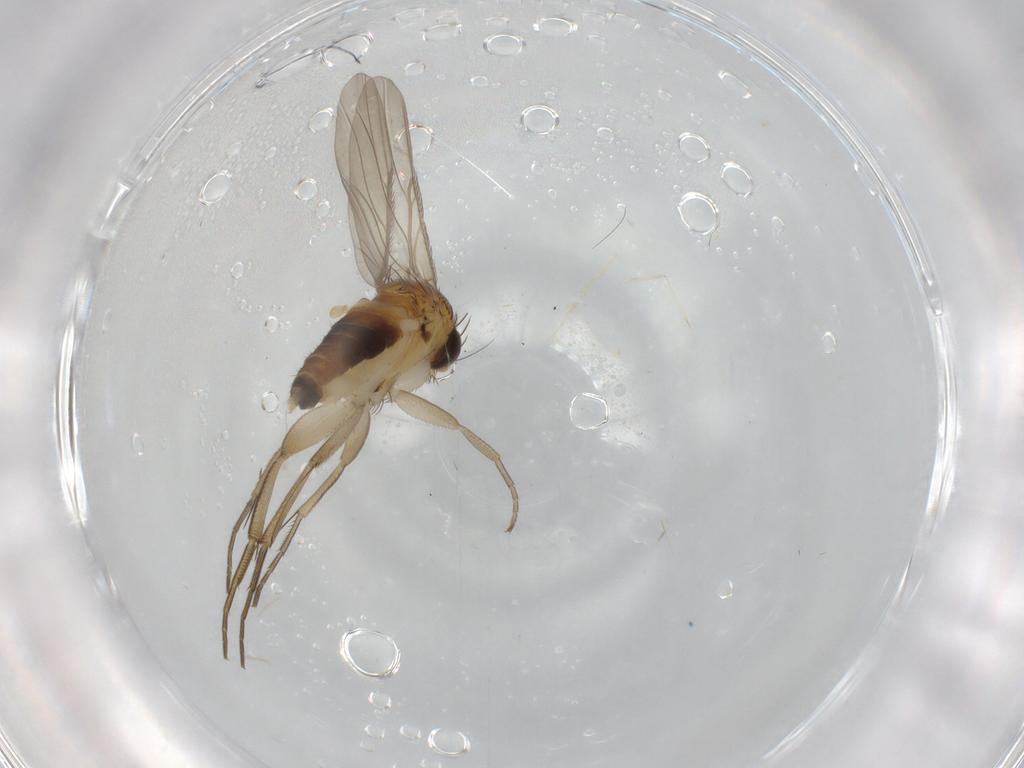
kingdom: Animalia
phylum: Arthropoda
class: Insecta
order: Diptera
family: Phoridae
